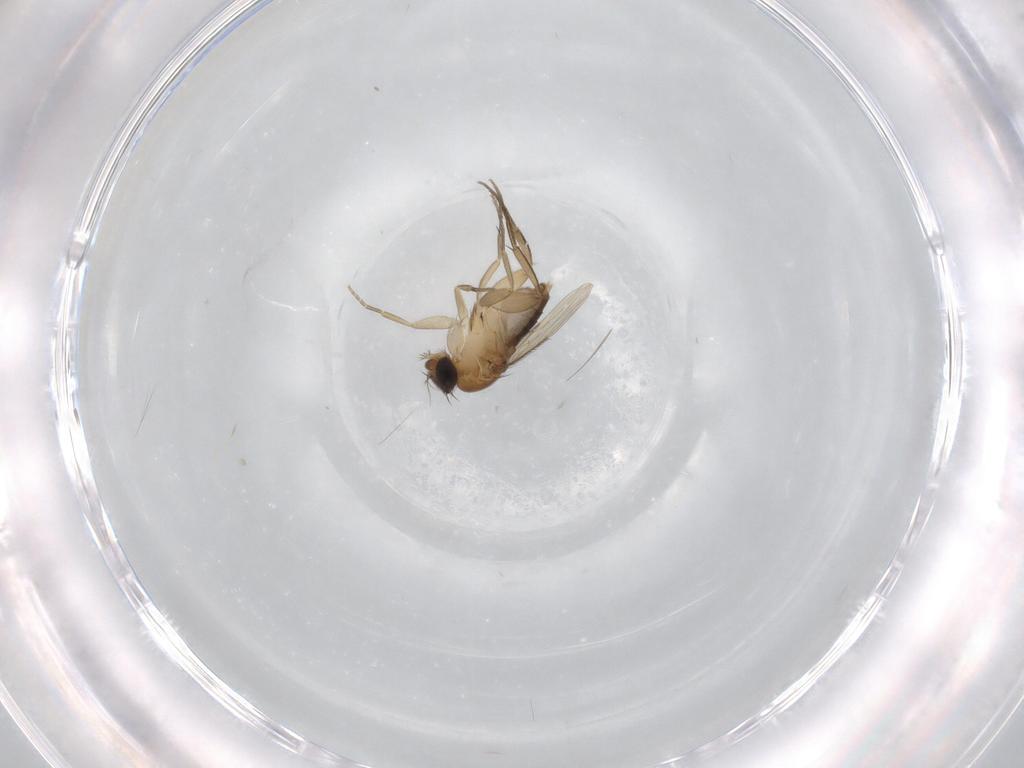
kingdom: Animalia
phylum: Arthropoda
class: Insecta
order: Diptera
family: Phoridae
